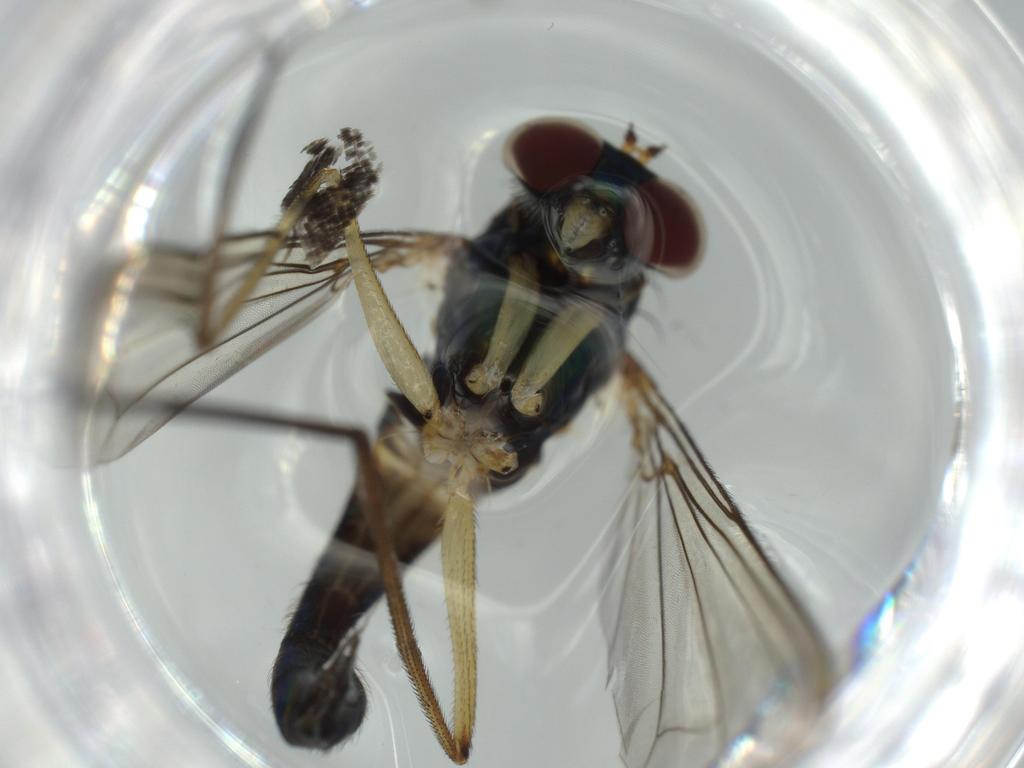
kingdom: Animalia
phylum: Arthropoda
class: Insecta
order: Diptera
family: Dolichopodidae
